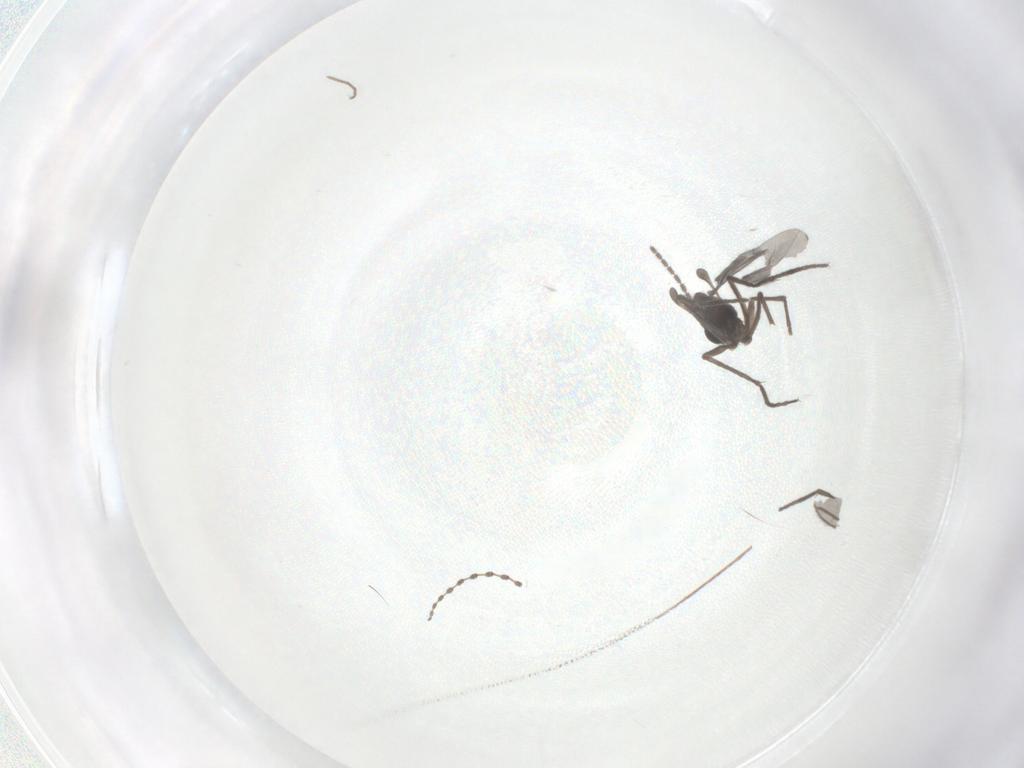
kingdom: Animalia
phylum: Arthropoda
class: Insecta
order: Diptera
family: Sciaridae
